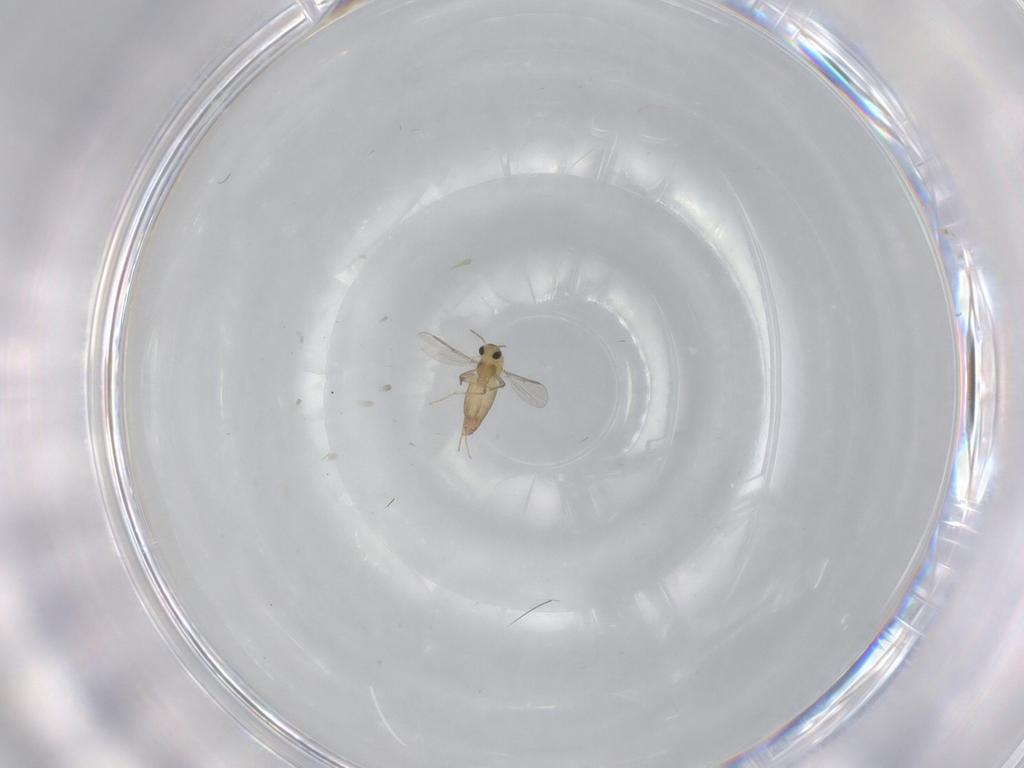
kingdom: Animalia
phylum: Arthropoda
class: Insecta
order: Diptera
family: Chironomidae
